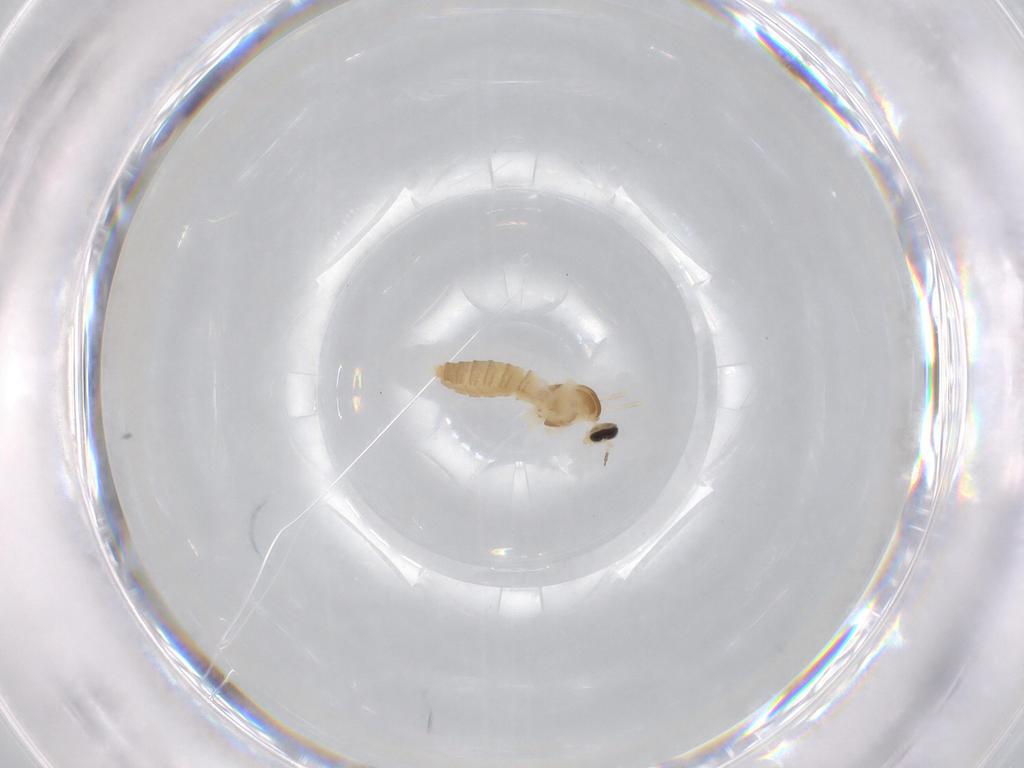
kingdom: Animalia
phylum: Arthropoda
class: Insecta
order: Diptera
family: Cecidomyiidae
